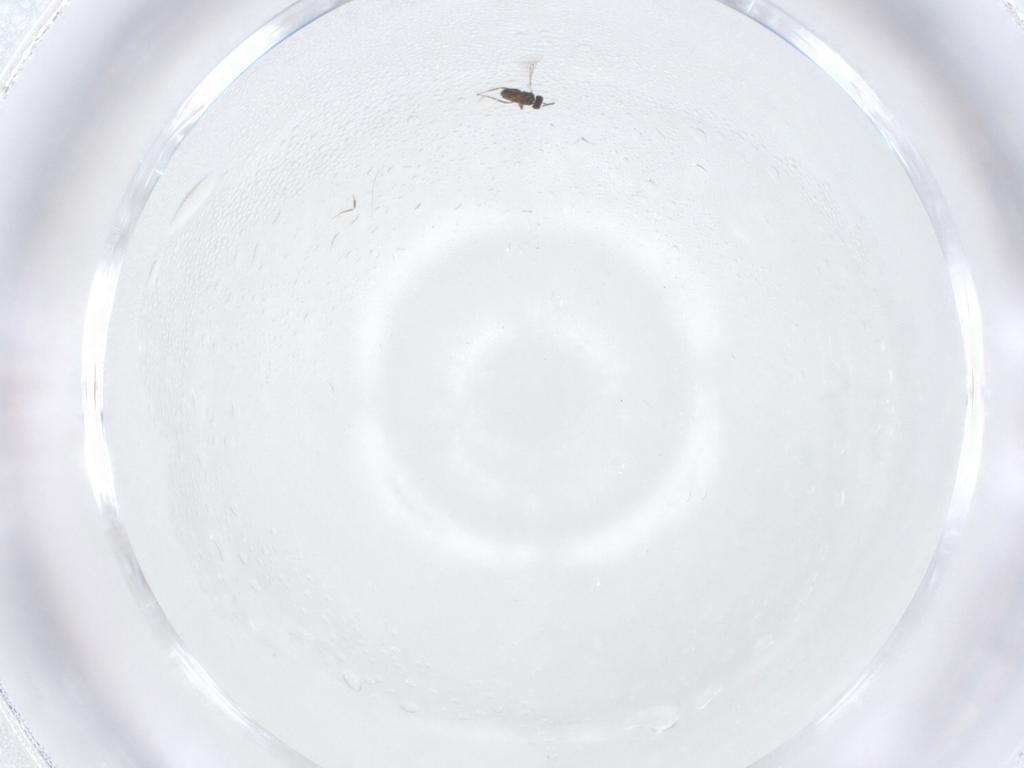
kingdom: Animalia
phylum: Arthropoda
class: Insecta
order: Hymenoptera
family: Mymaridae
